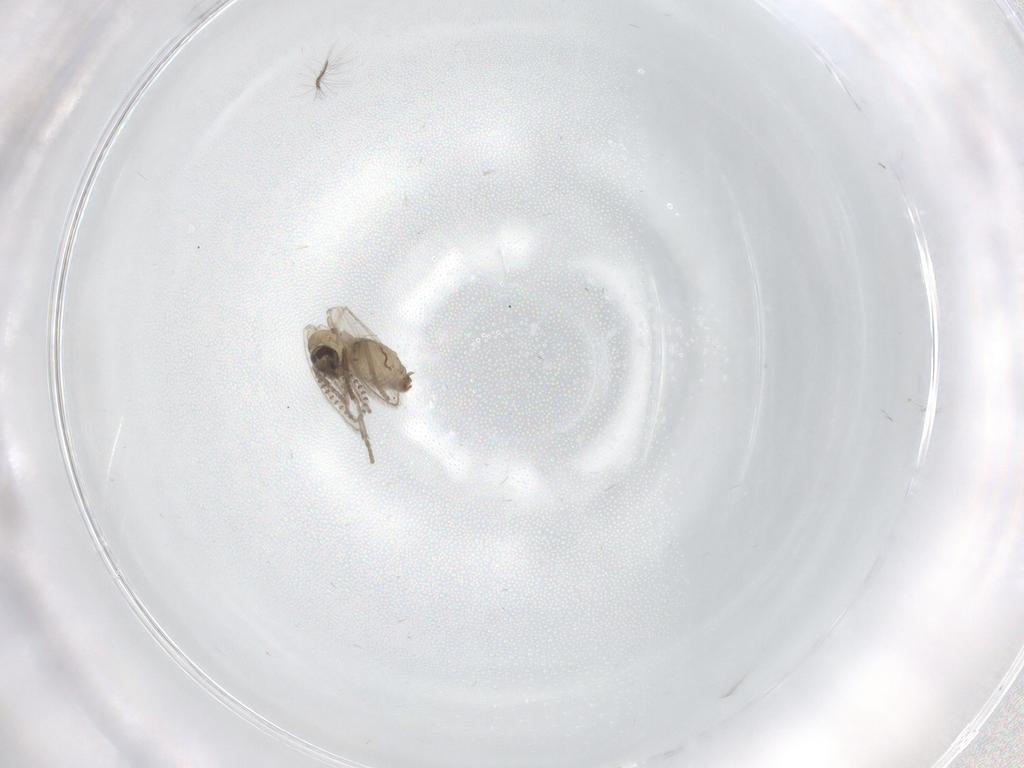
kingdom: Animalia
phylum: Arthropoda
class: Insecta
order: Diptera
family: Psychodidae
